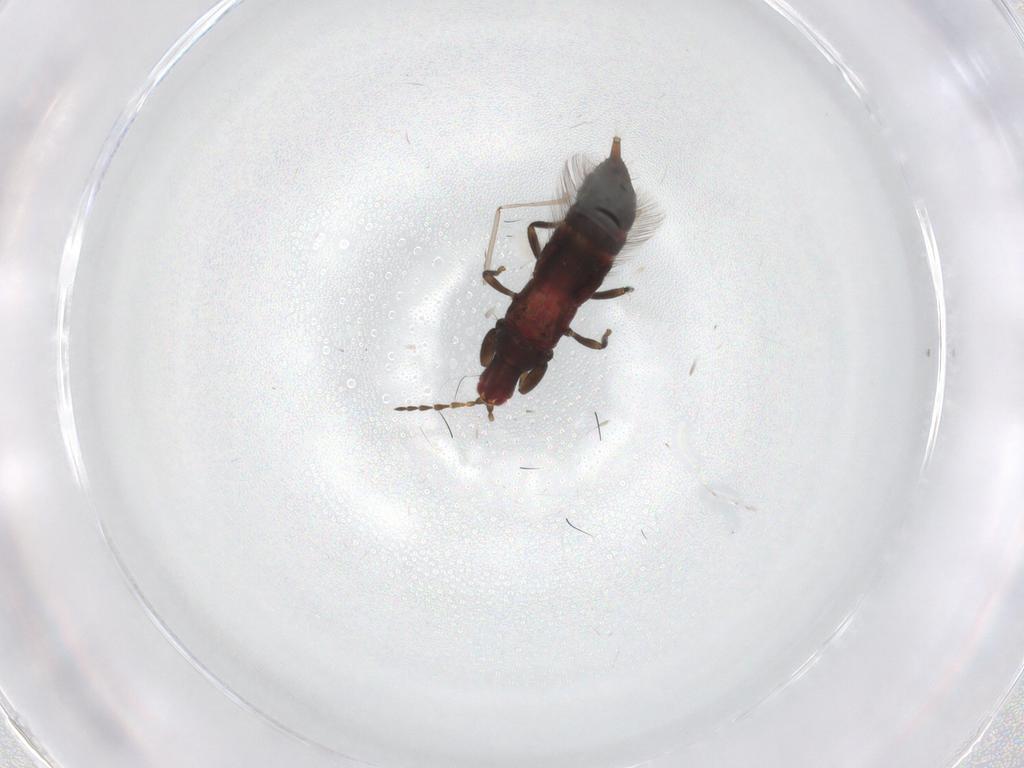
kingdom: Animalia
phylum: Arthropoda
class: Insecta
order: Thysanoptera
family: Phlaeothripidae
